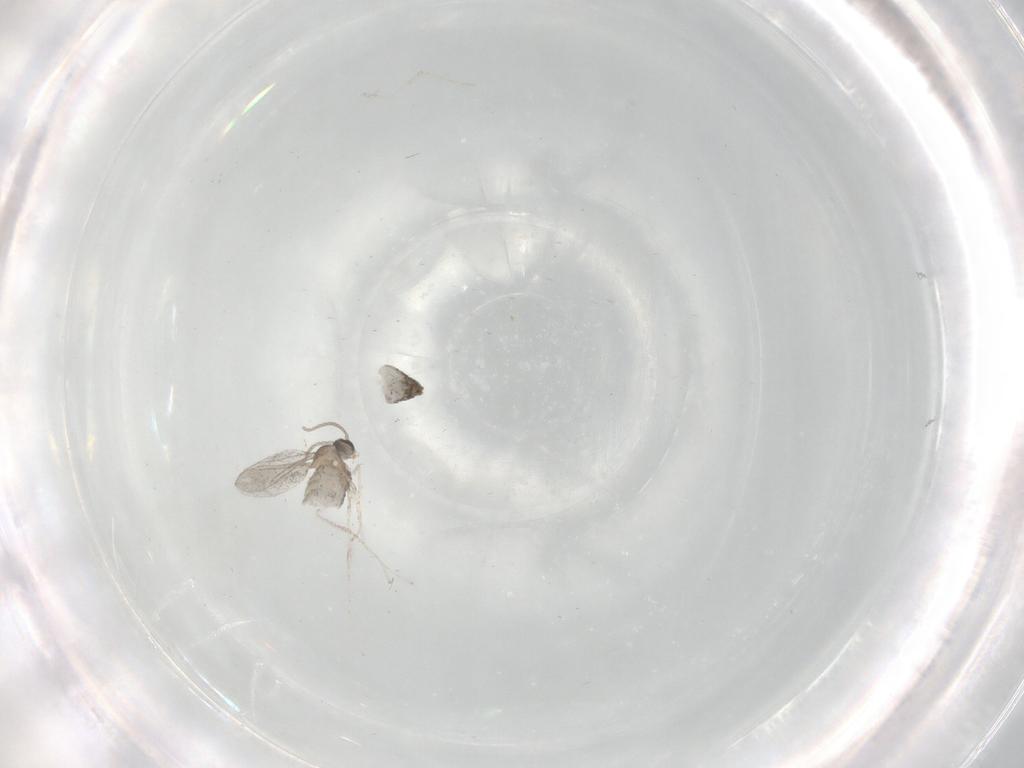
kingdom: Animalia
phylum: Arthropoda
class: Insecta
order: Diptera
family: Cecidomyiidae
